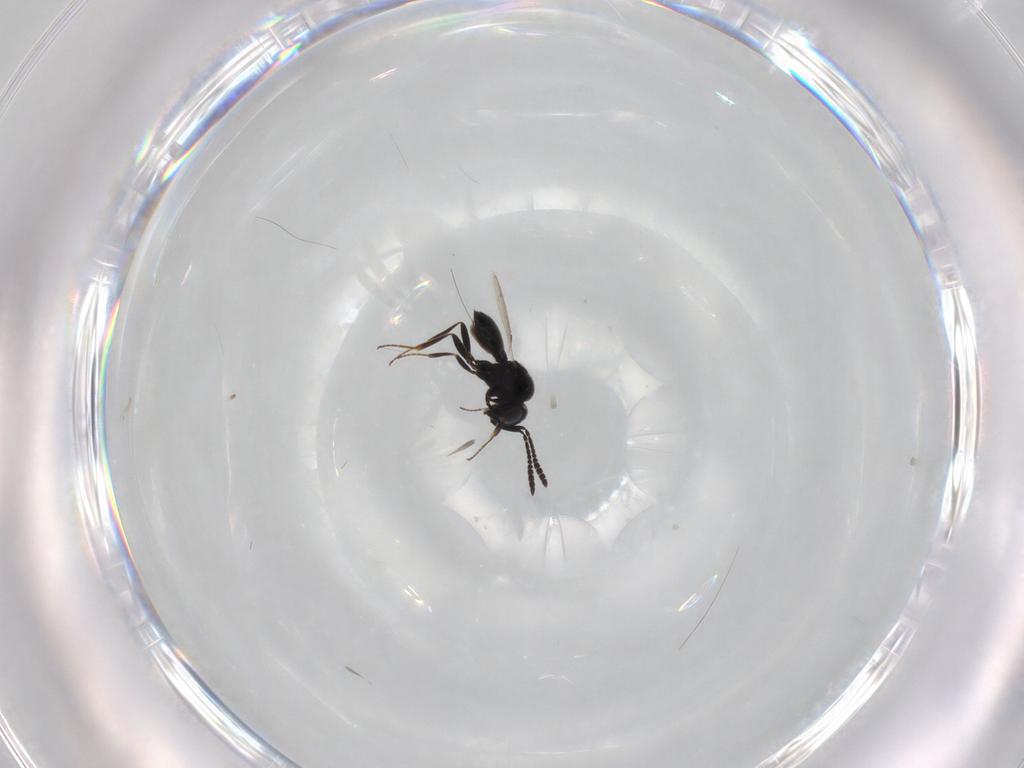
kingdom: Animalia
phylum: Arthropoda
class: Insecta
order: Hymenoptera
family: Scelionidae
